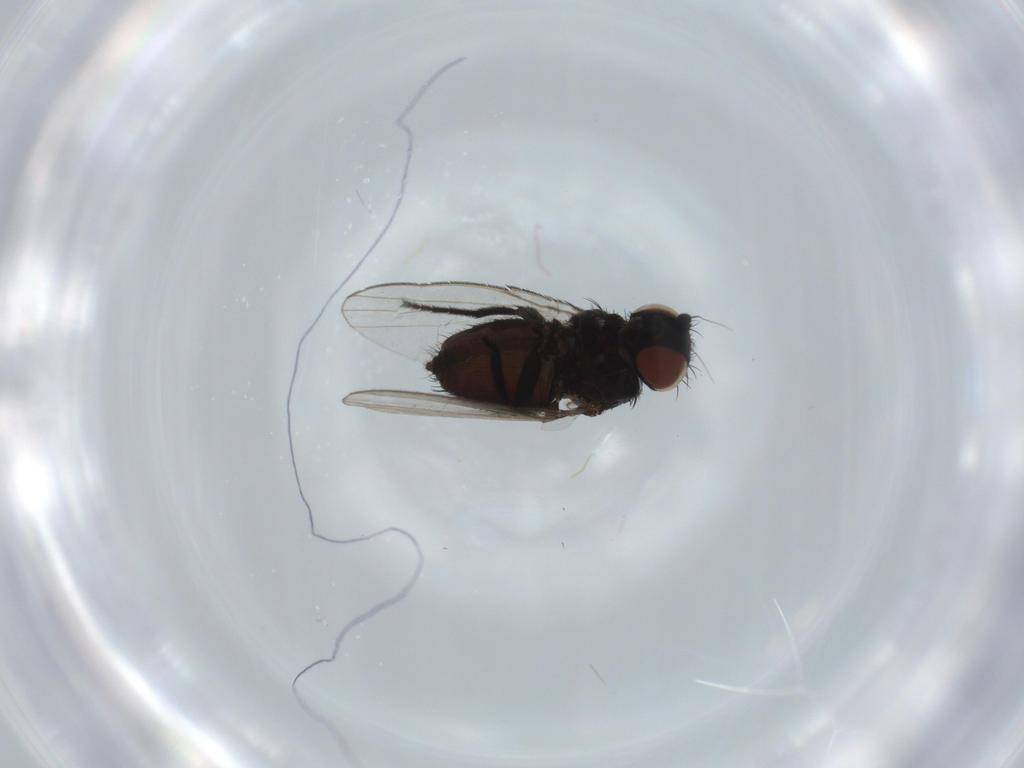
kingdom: Animalia
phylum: Arthropoda
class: Insecta
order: Diptera
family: Milichiidae
